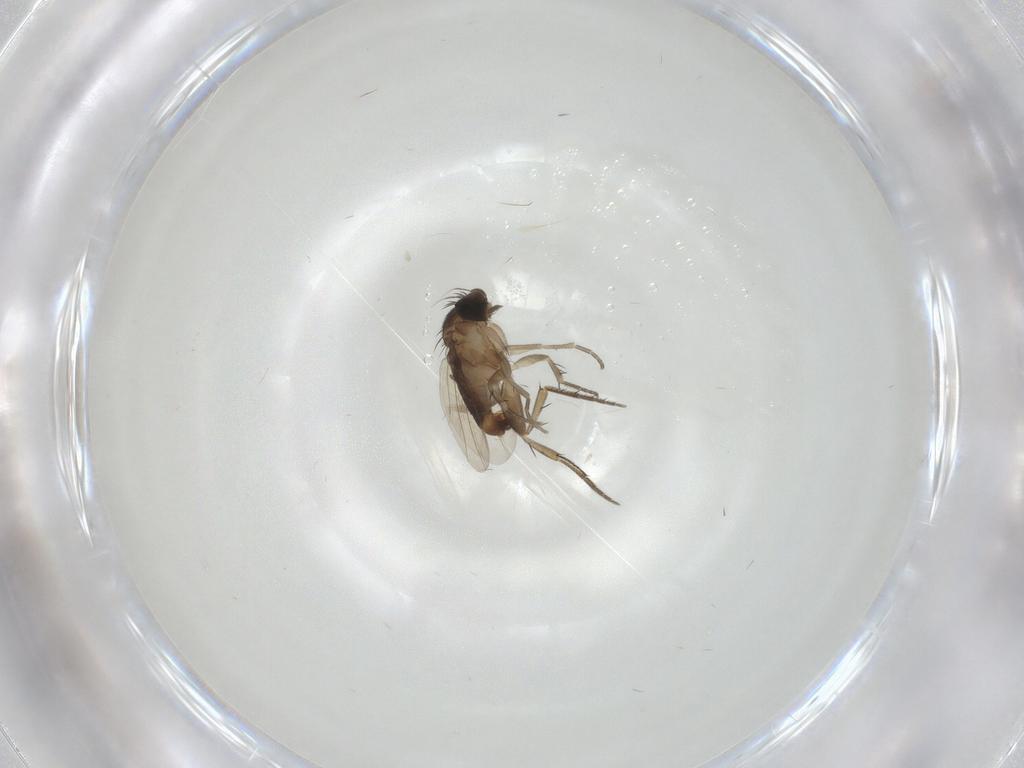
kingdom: Animalia
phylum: Arthropoda
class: Insecta
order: Diptera
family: Phoridae
